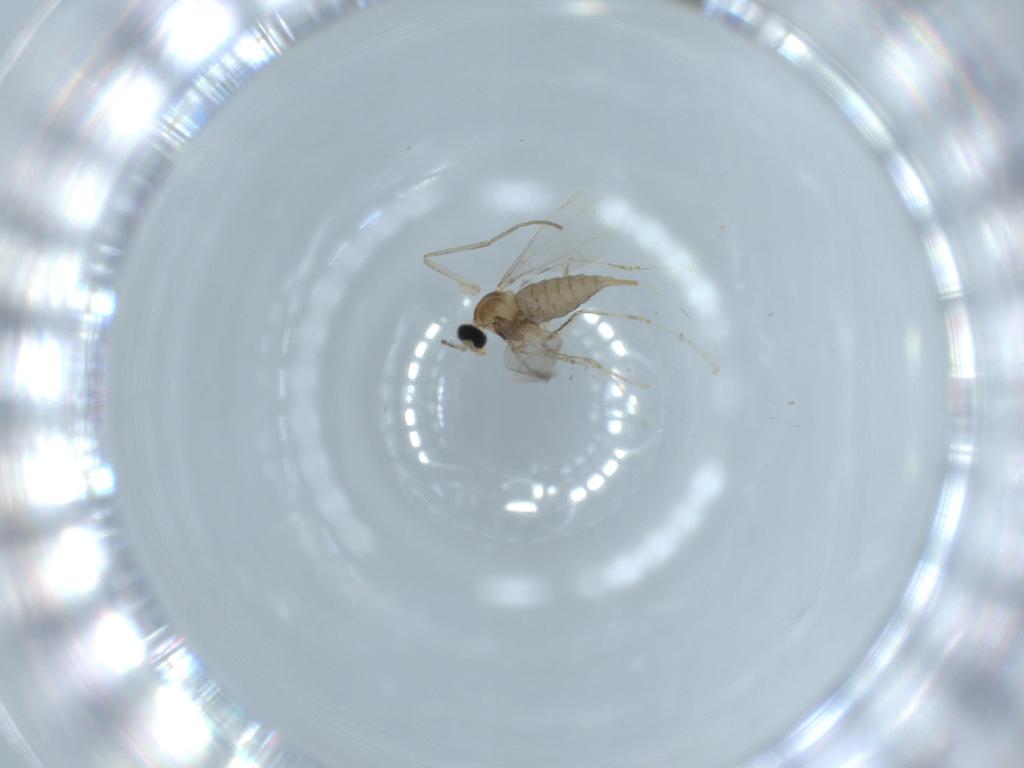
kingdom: Animalia
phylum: Arthropoda
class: Insecta
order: Diptera
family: Cecidomyiidae
